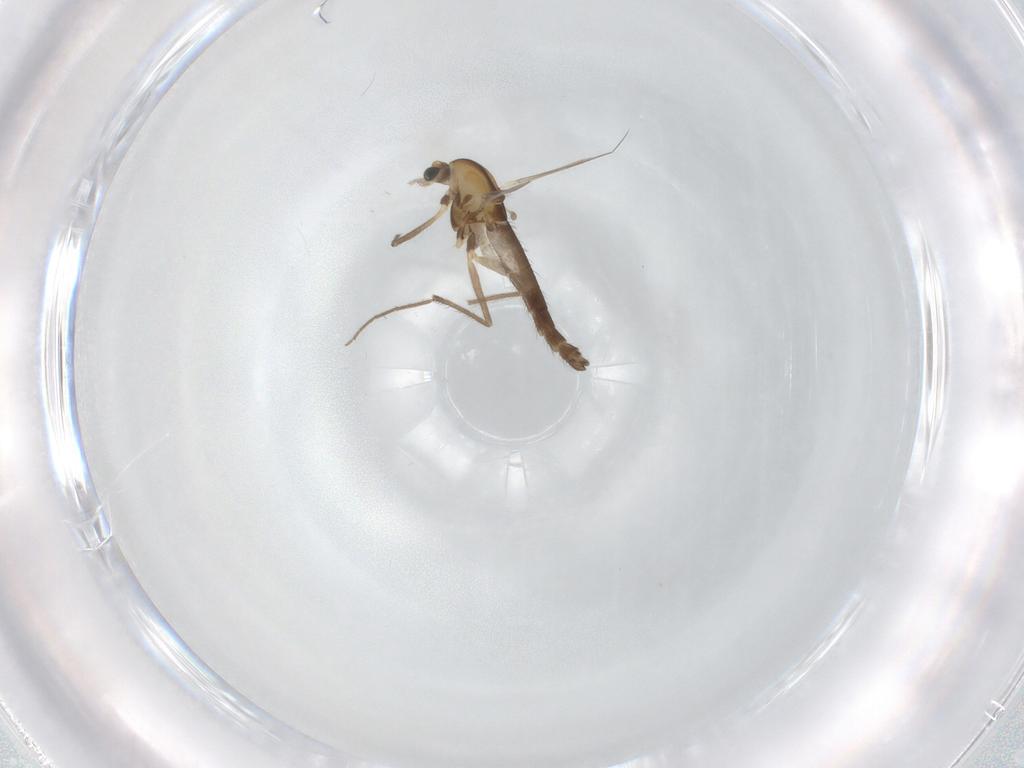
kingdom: Animalia
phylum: Arthropoda
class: Insecta
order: Diptera
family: Chironomidae
